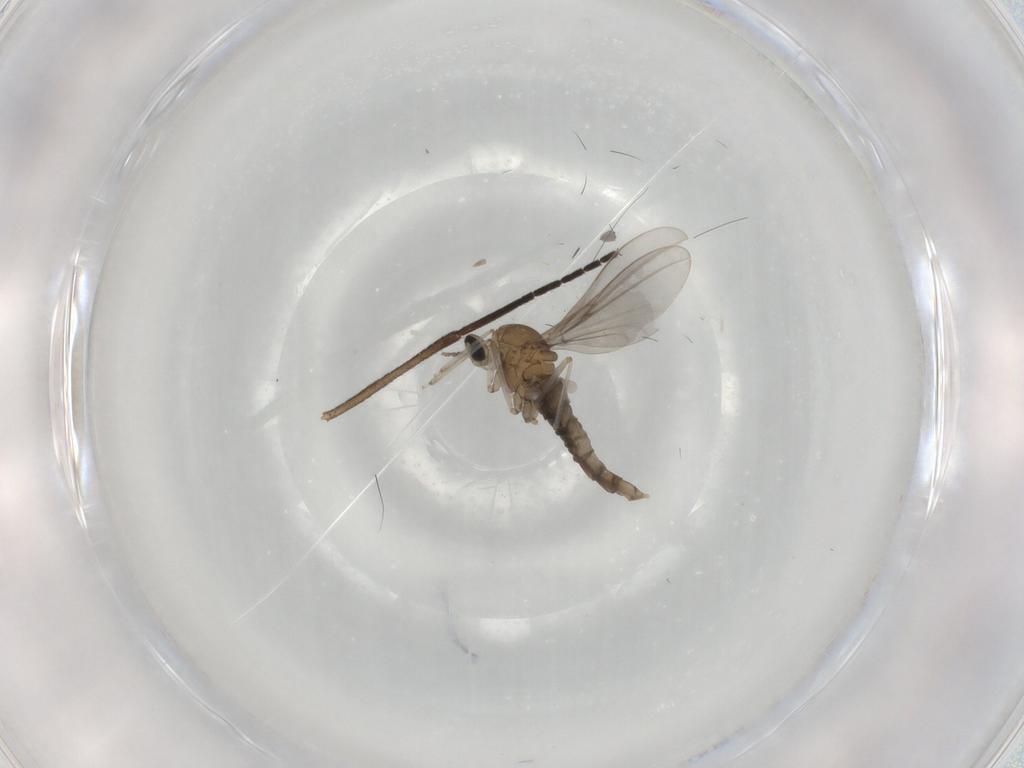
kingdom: Animalia
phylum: Arthropoda
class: Insecta
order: Diptera
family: Cecidomyiidae
